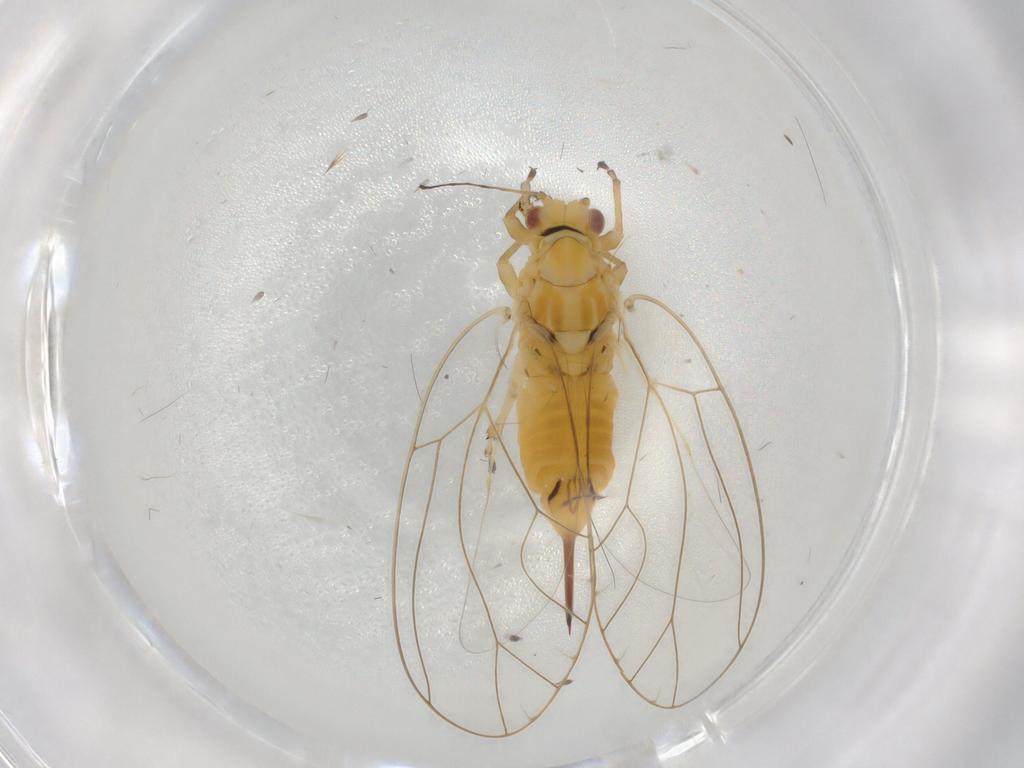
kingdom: Animalia
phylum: Arthropoda
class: Insecta
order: Hemiptera
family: Triozidae
